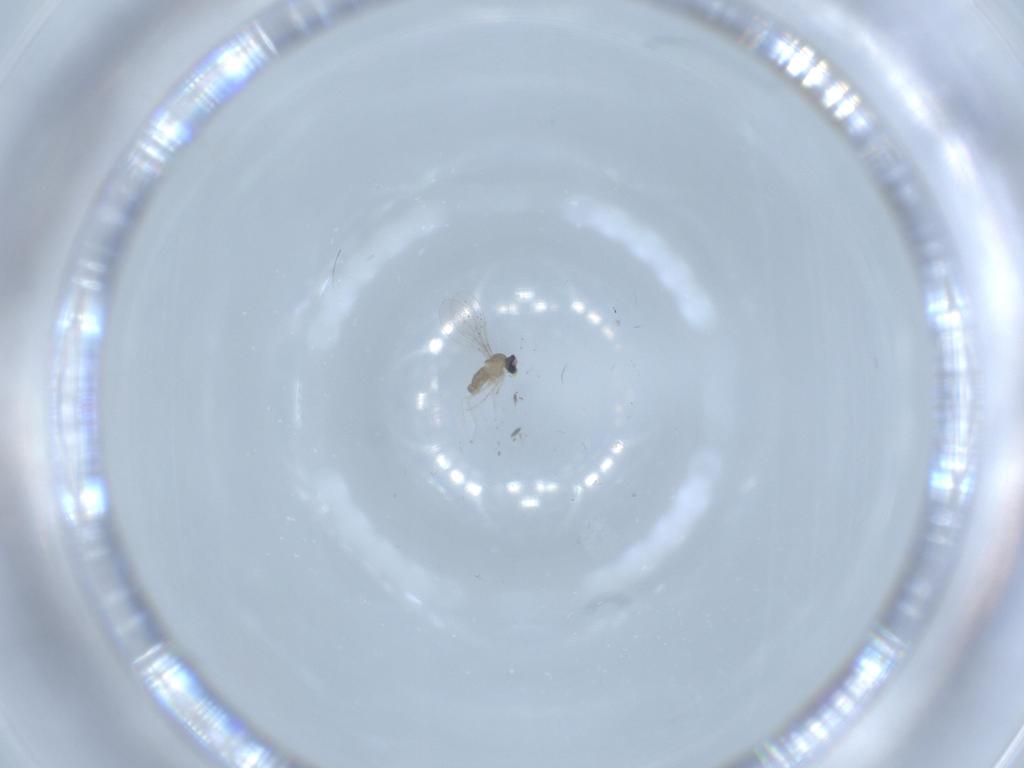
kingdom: Animalia
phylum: Arthropoda
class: Insecta
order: Diptera
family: Cecidomyiidae
